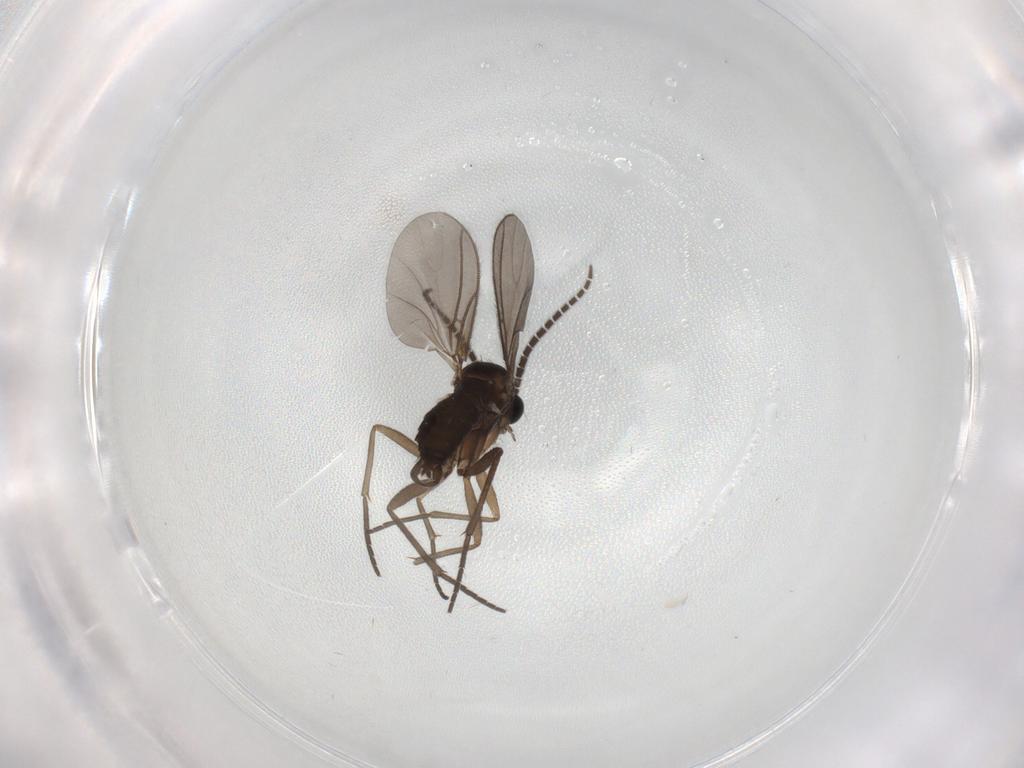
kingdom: Animalia
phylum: Arthropoda
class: Insecta
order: Diptera
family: Sciaridae
